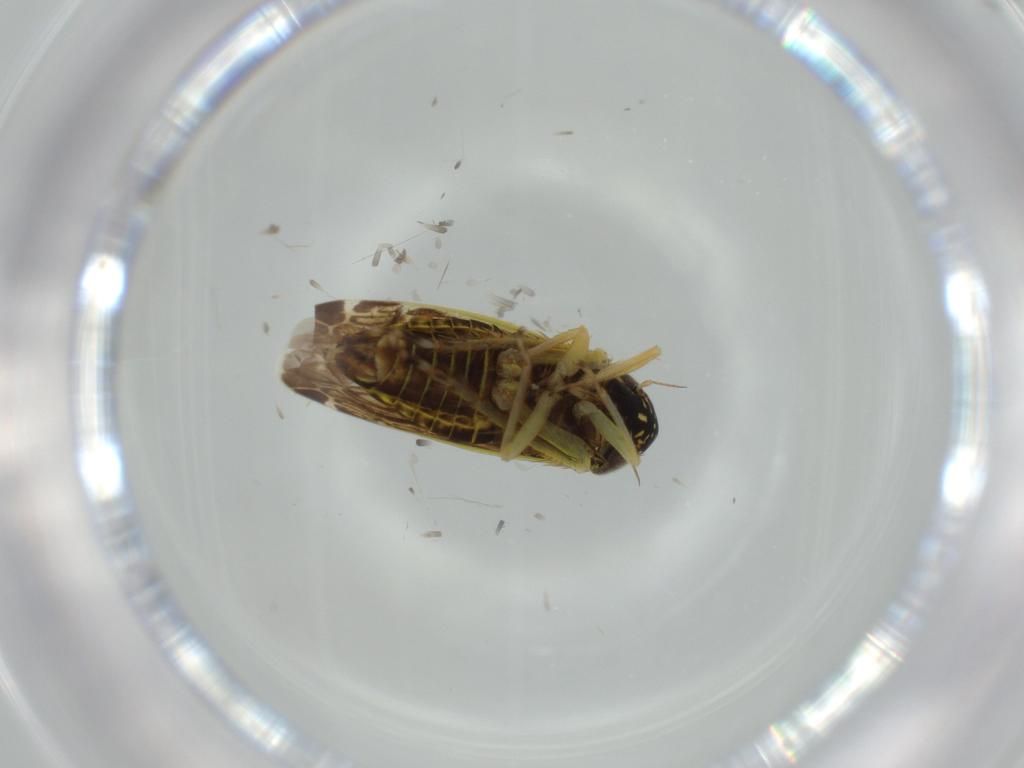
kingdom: Animalia
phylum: Arthropoda
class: Insecta
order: Hemiptera
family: Cicadellidae
